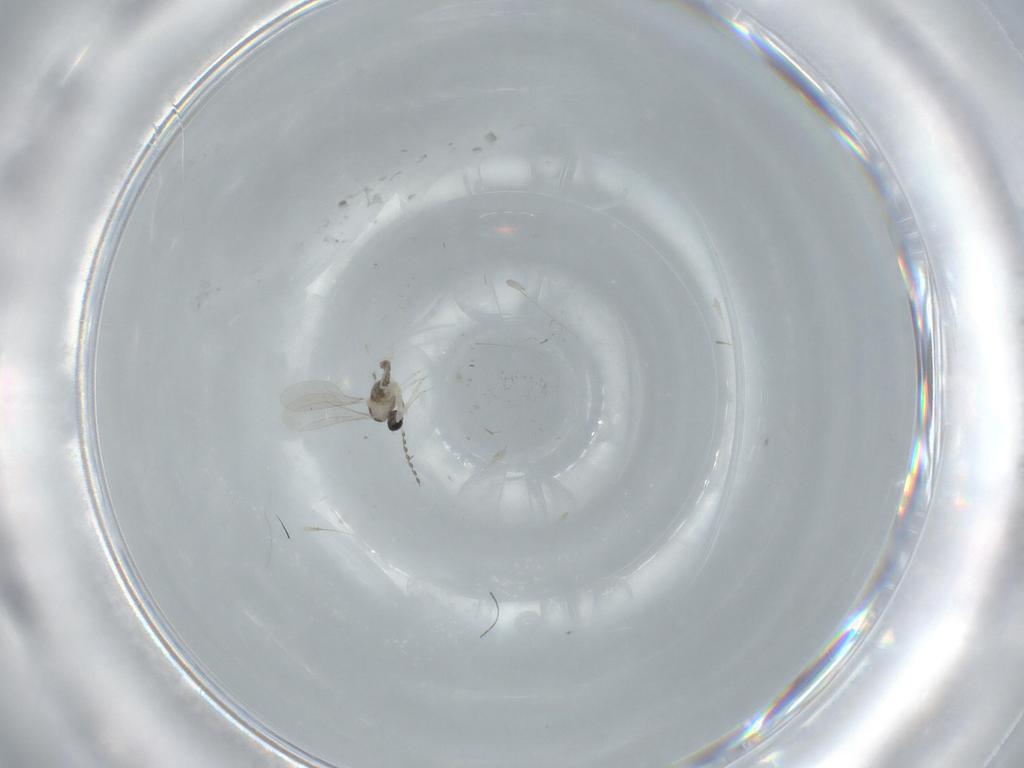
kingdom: Animalia
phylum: Arthropoda
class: Insecta
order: Diptera
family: Cecidomyiidae
